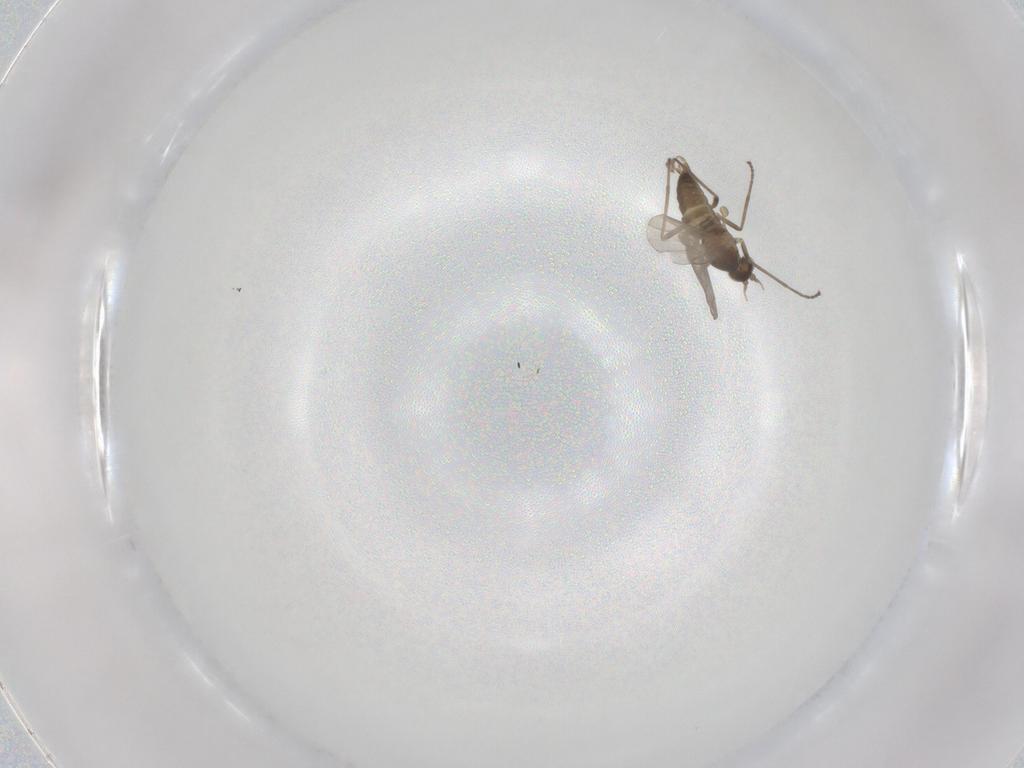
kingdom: Animalia
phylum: Arthropoda
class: Insecta
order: Diptera
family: Cecidomyiidae
